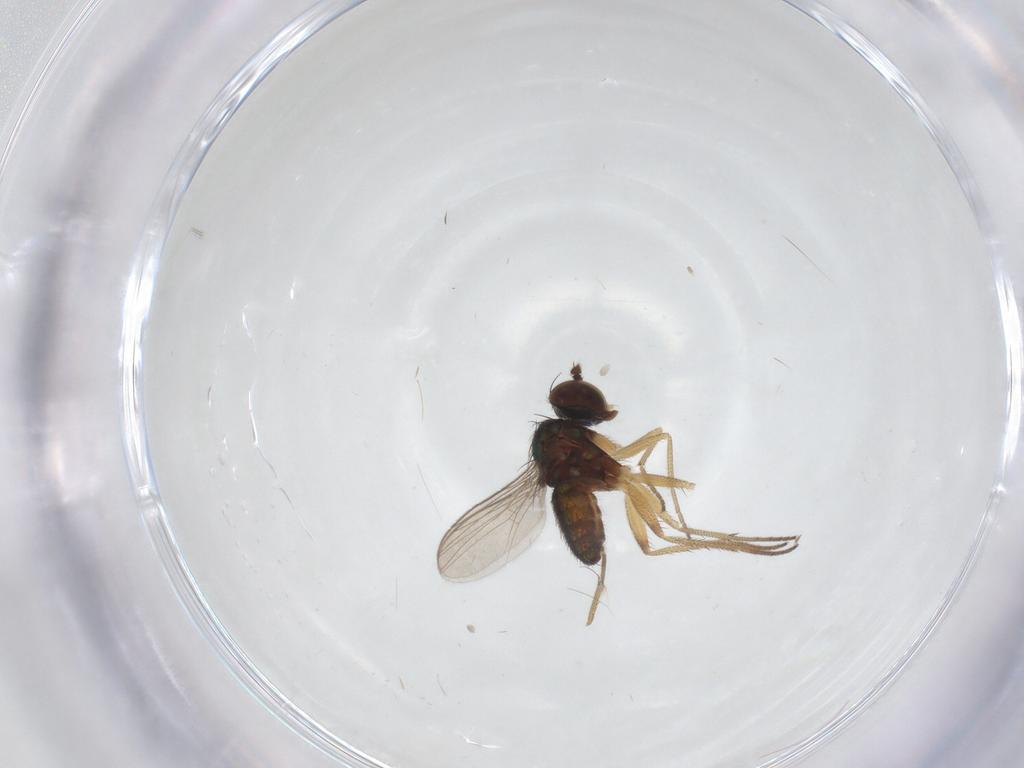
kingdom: Animalia
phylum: Arthropoda
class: Insecta
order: Diptera
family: Dolichopodidae
